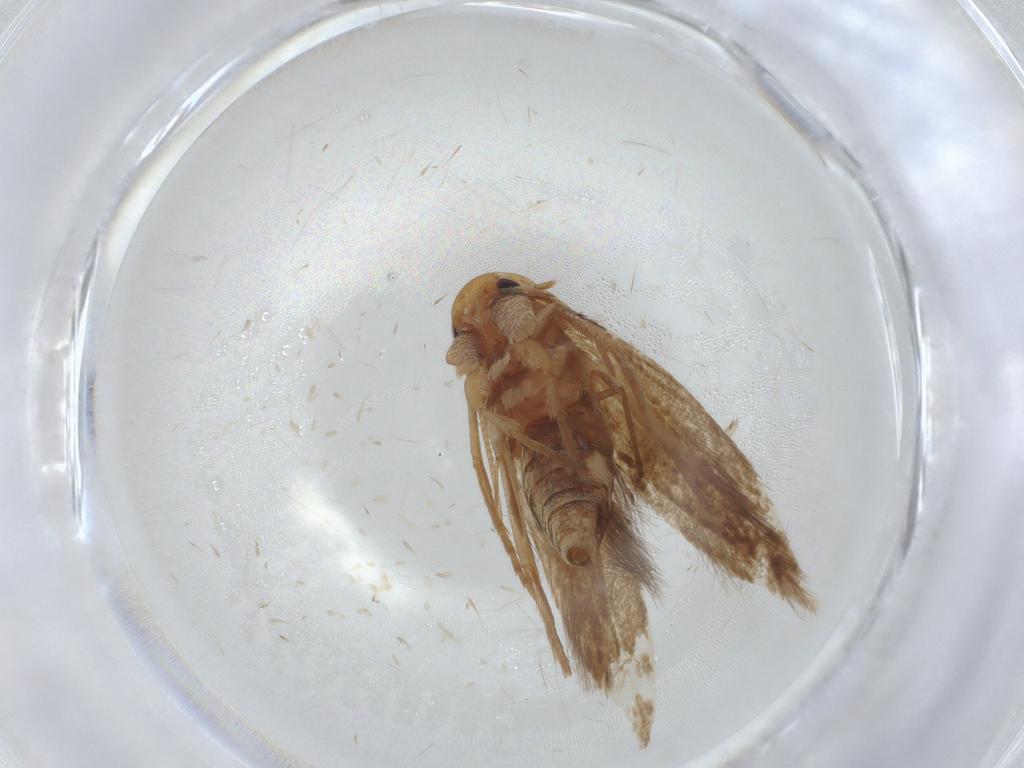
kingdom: Animalia
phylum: Arthropoda
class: Insecta
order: Lepidoptera
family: Tineidae
